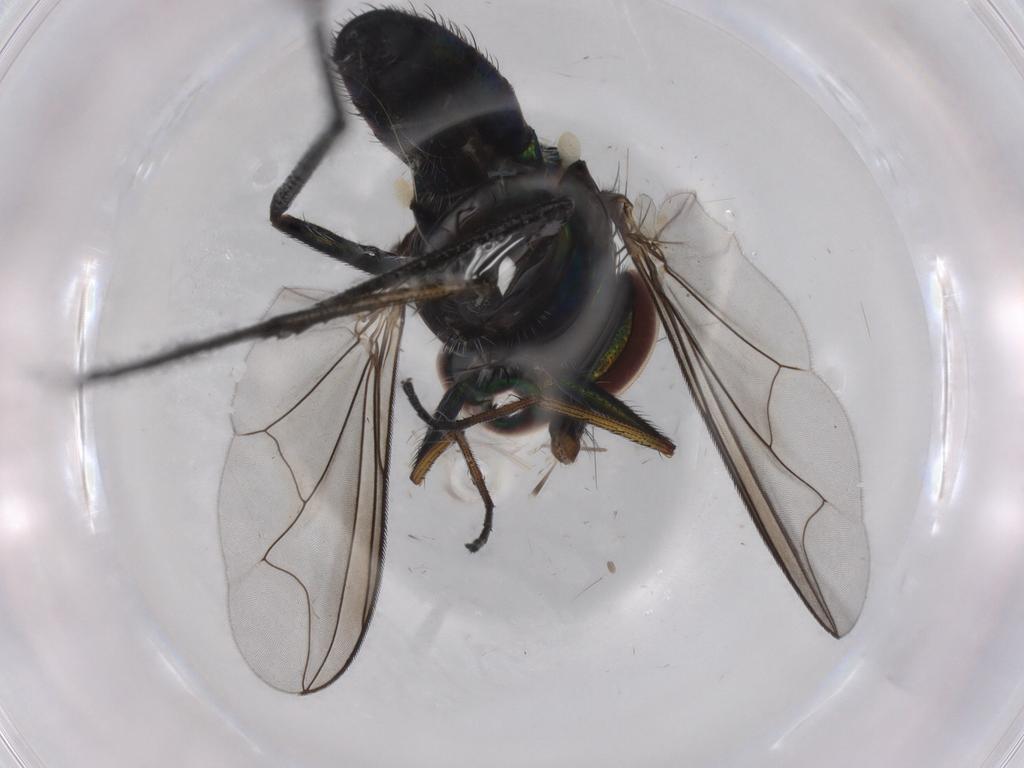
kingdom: Animalia
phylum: Arthropoda
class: Insecta
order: Diptera
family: Dolichopodidae
